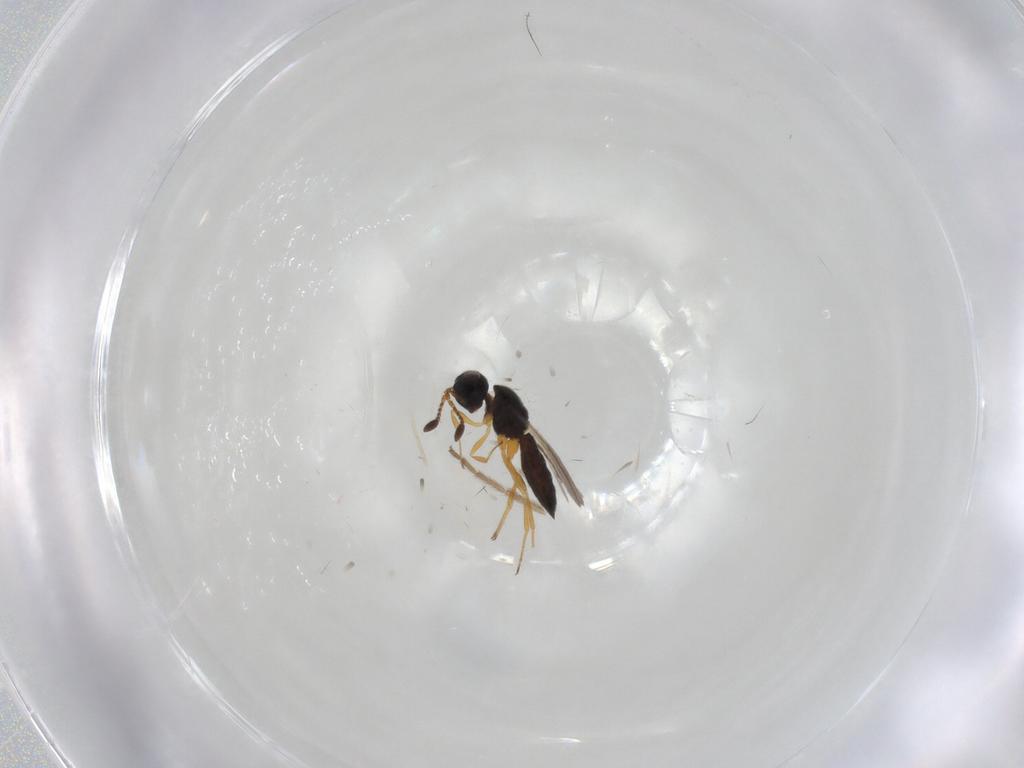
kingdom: Animalia
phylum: Arthropoda
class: Insecta
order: Hymenoptera
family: Scelionidae
